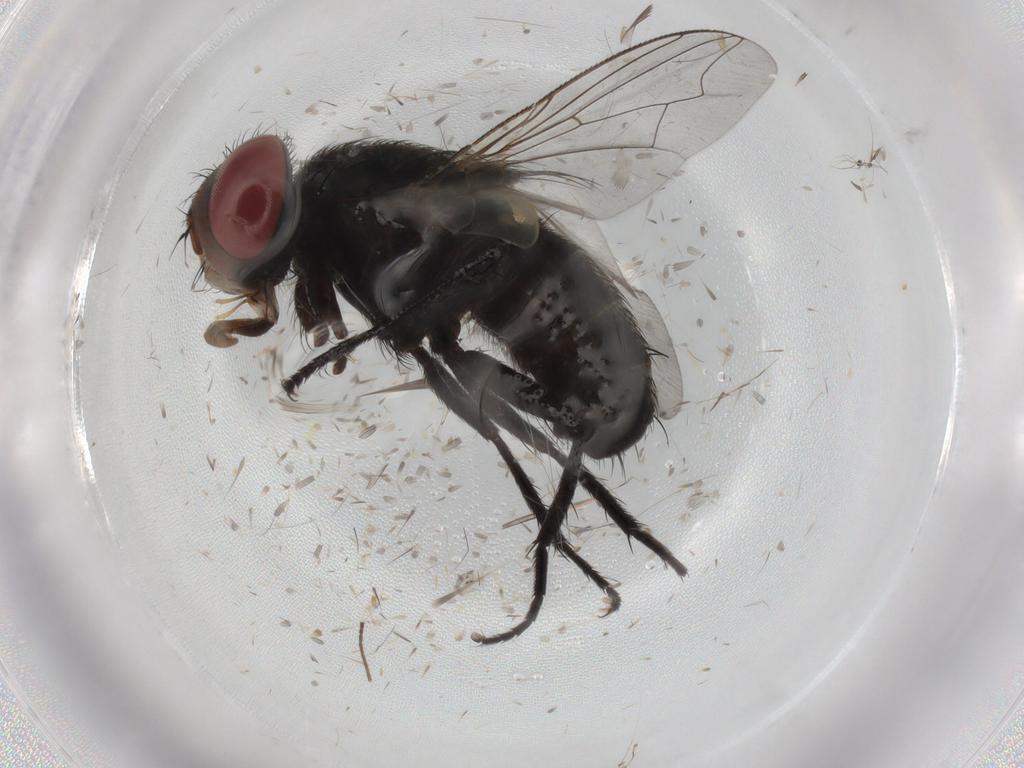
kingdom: Animalia
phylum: Arthropoda
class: Insecta
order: Diptera
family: Sarcophagidae
